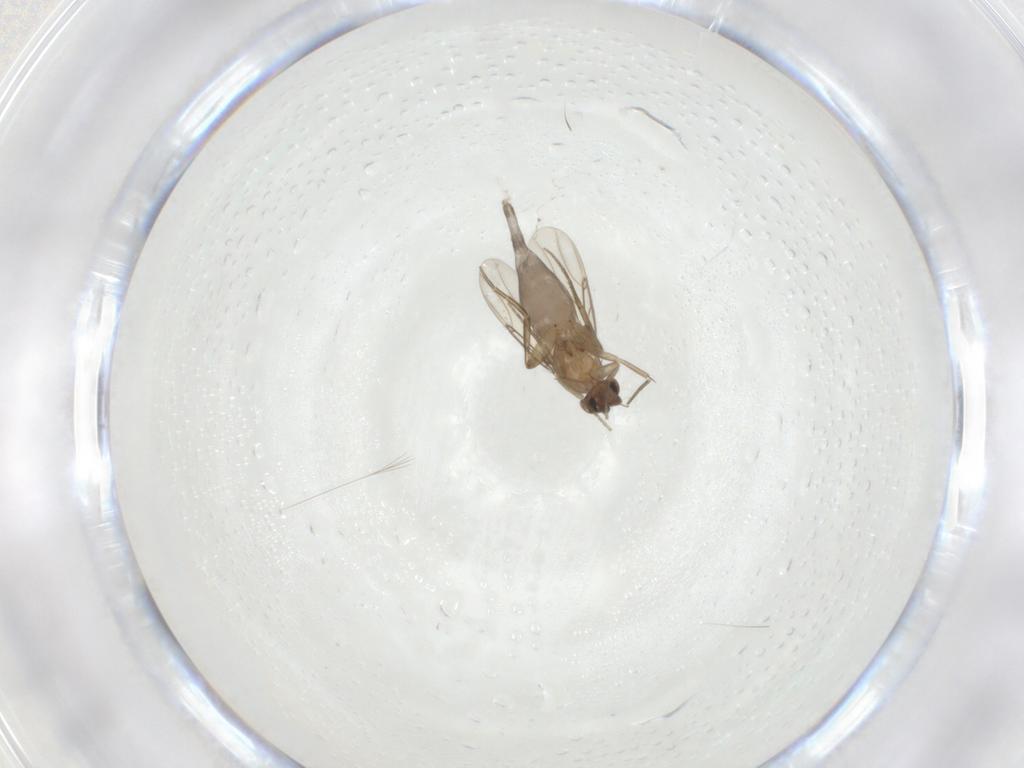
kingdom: Animalia
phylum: Arthropoda
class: Insecta
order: Diptera
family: Phoridae
